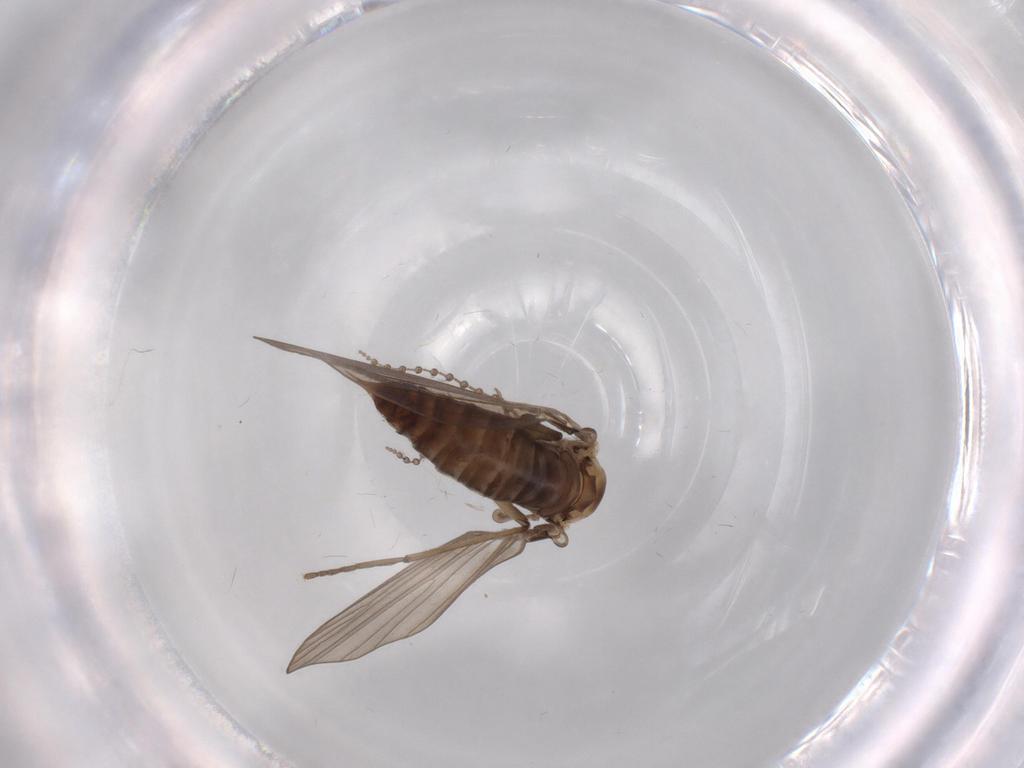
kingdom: Animalia
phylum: Arthropoda
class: Insecta
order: Diptera
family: Psychodidae
